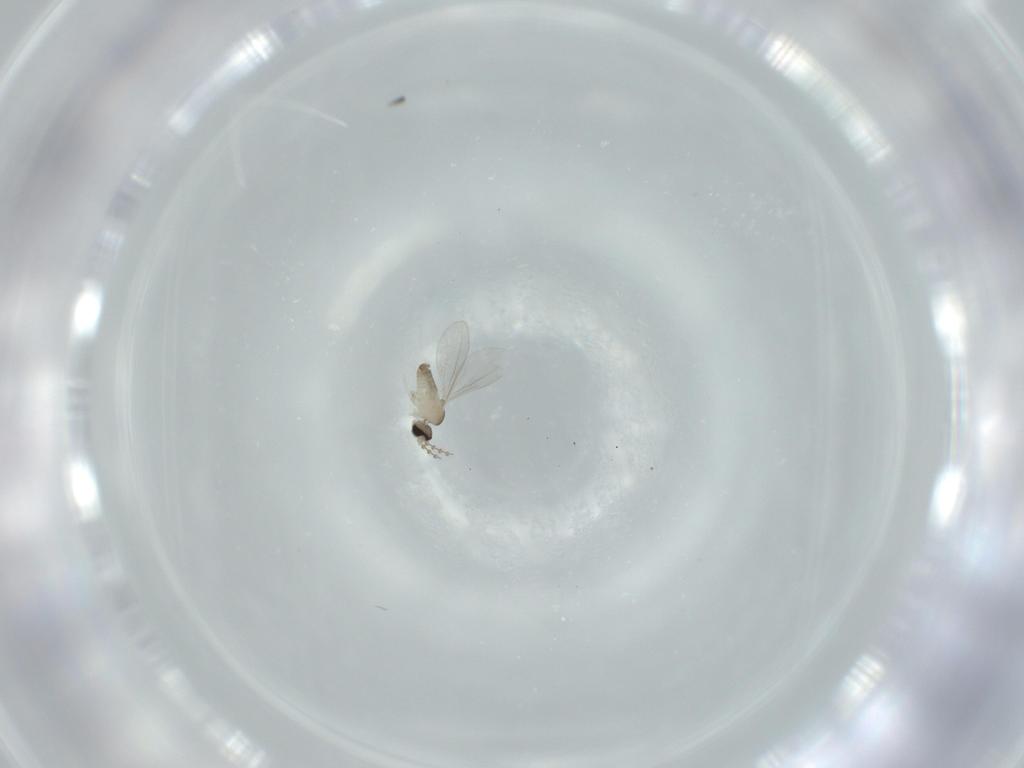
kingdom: Animalia
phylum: Arthropoda
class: Insecta
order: Diptera
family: Cecidomyiidae
